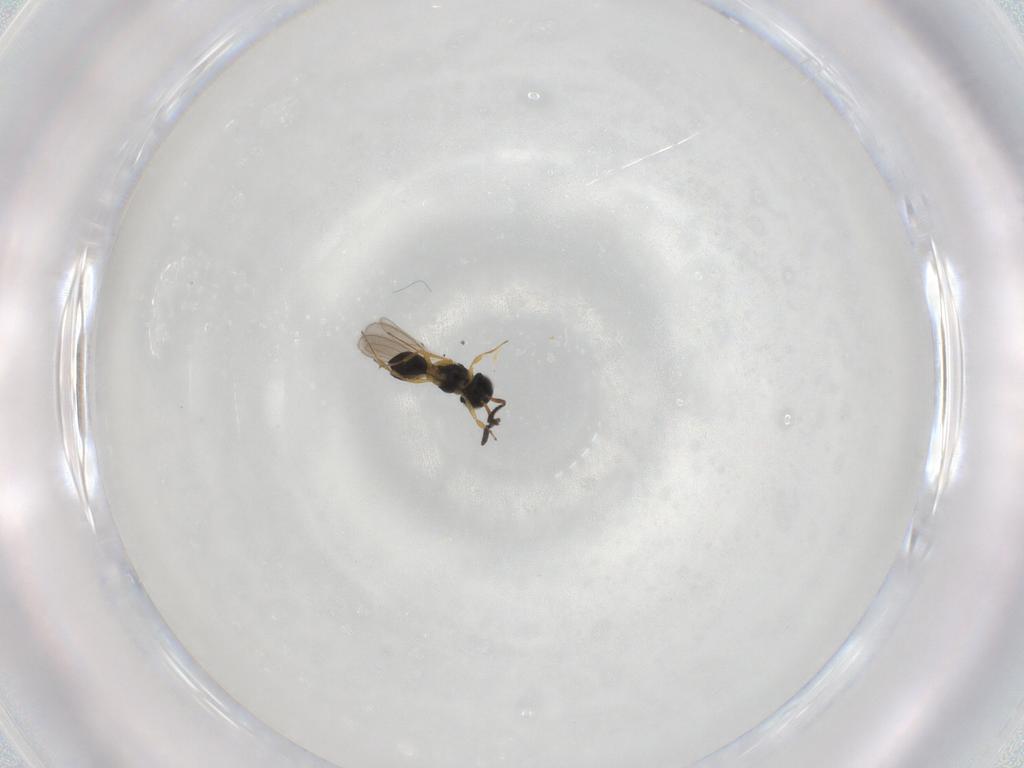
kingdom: Animalia
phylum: Arthropoda
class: Insecta
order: Hymenoptera
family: Scelionidae
